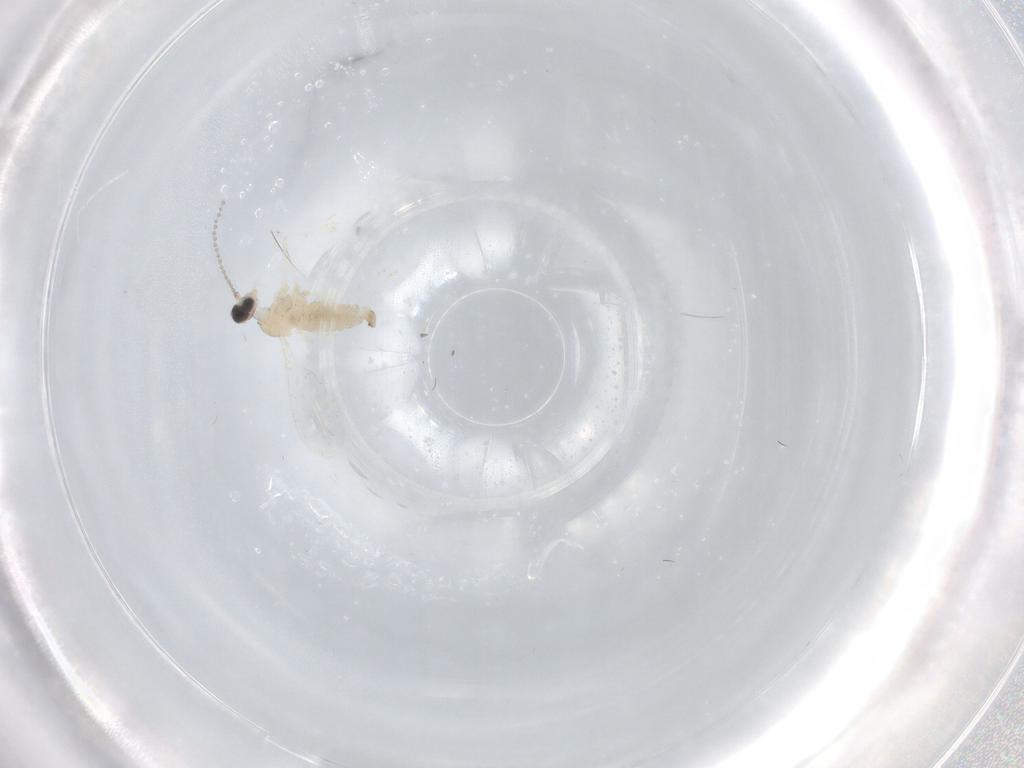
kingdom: Animalia
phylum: Arthropoda
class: Insecta
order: Diptera
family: Cecidomyiidae
